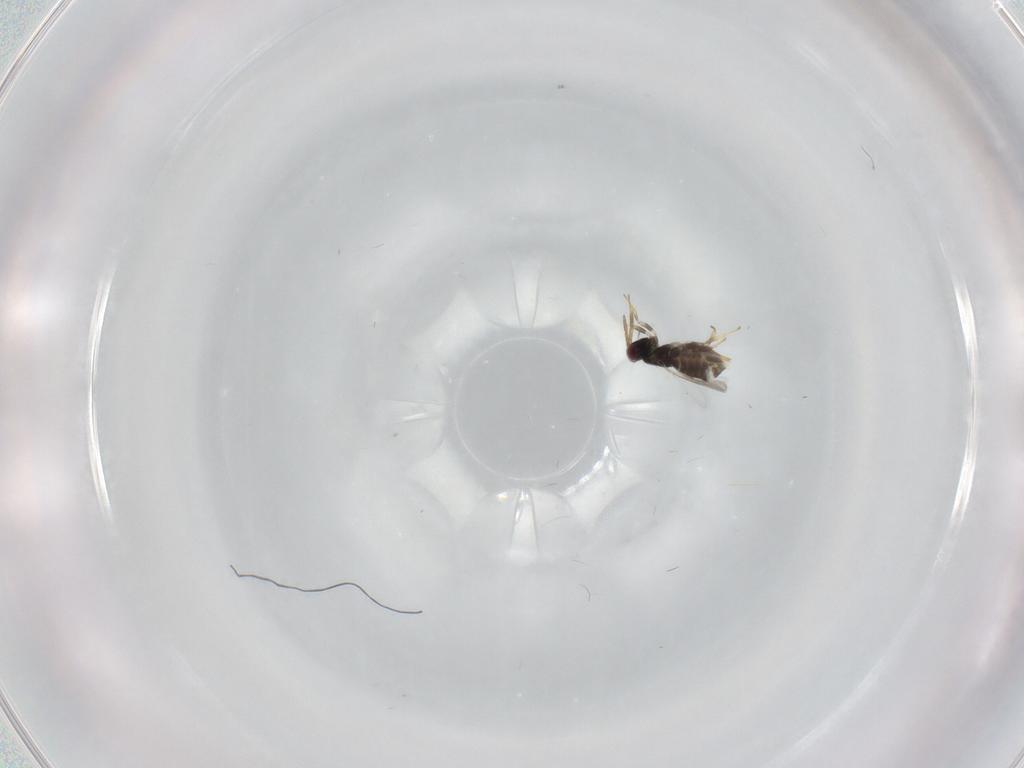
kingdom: Animalia
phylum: Arthropoda
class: Insecta
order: Hymenoptera
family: Aphelinidae
